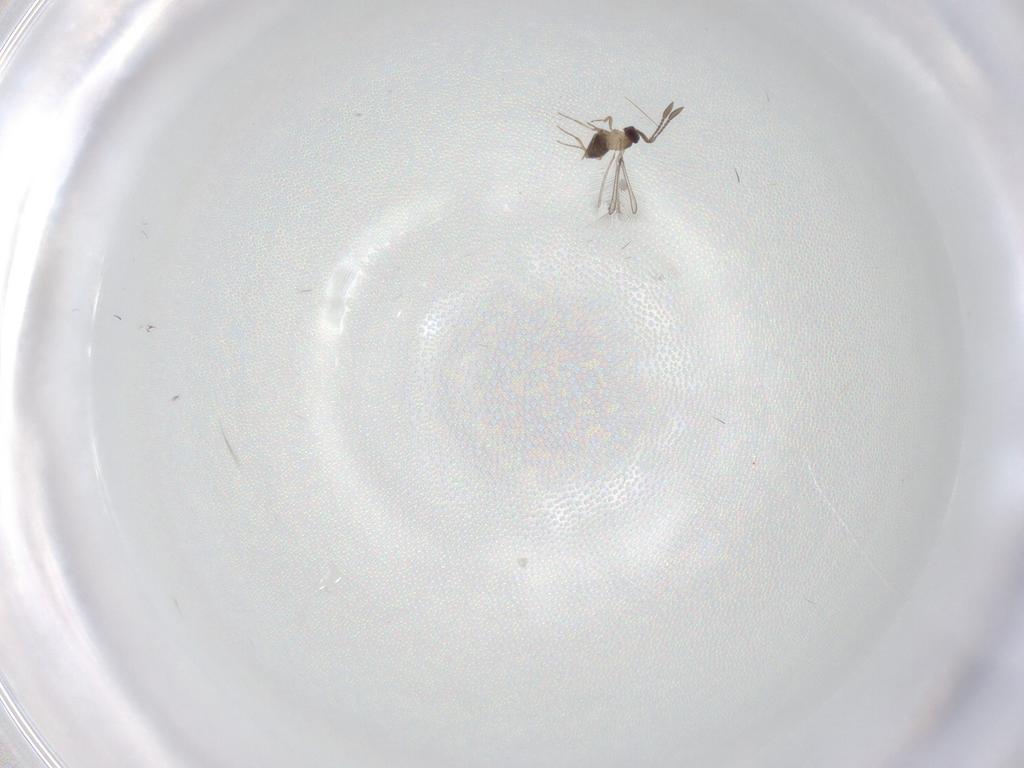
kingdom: Animalia
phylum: Arthropoda
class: Insecta
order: Hymenoptera
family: Mymaridae
